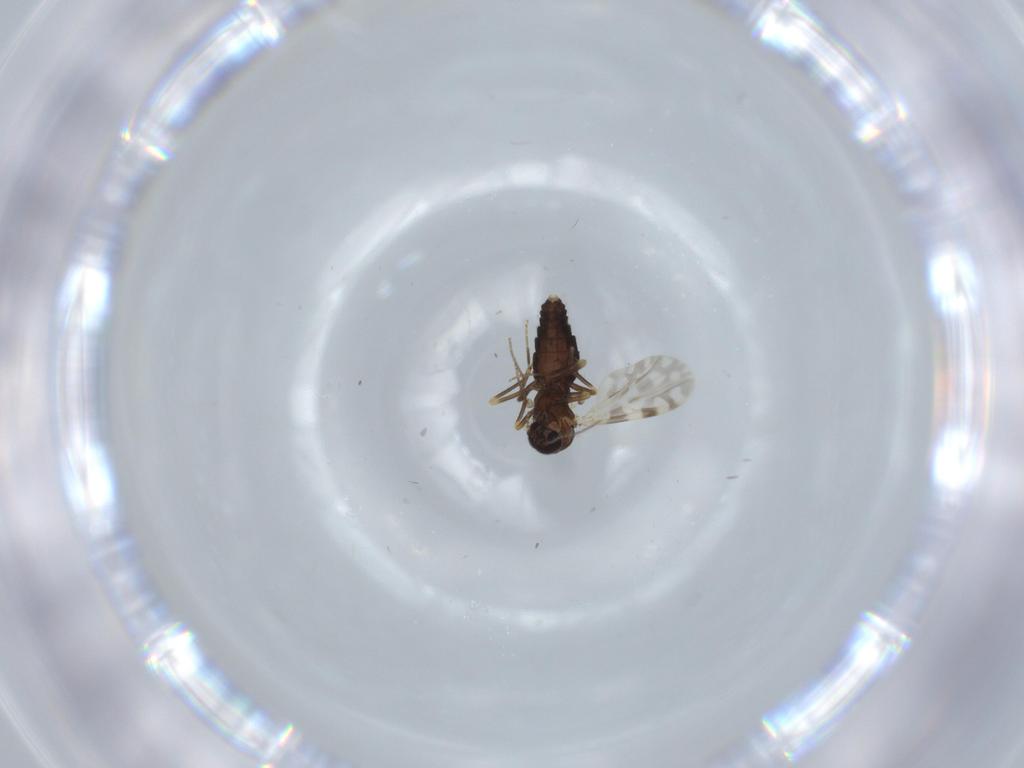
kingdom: Animalia
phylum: Arthropoda
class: Insecta
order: Diptera
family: Ceratopogonidae
